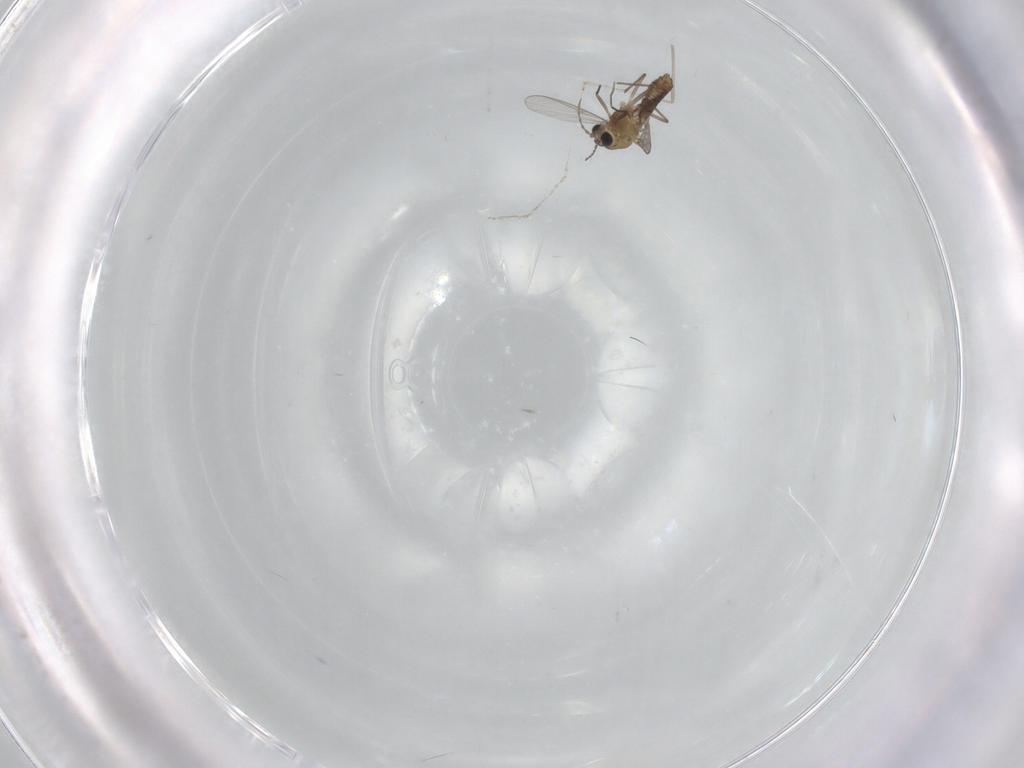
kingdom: Animalia
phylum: Arthropoda
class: Insecta
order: Diptera
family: Chironomidae
